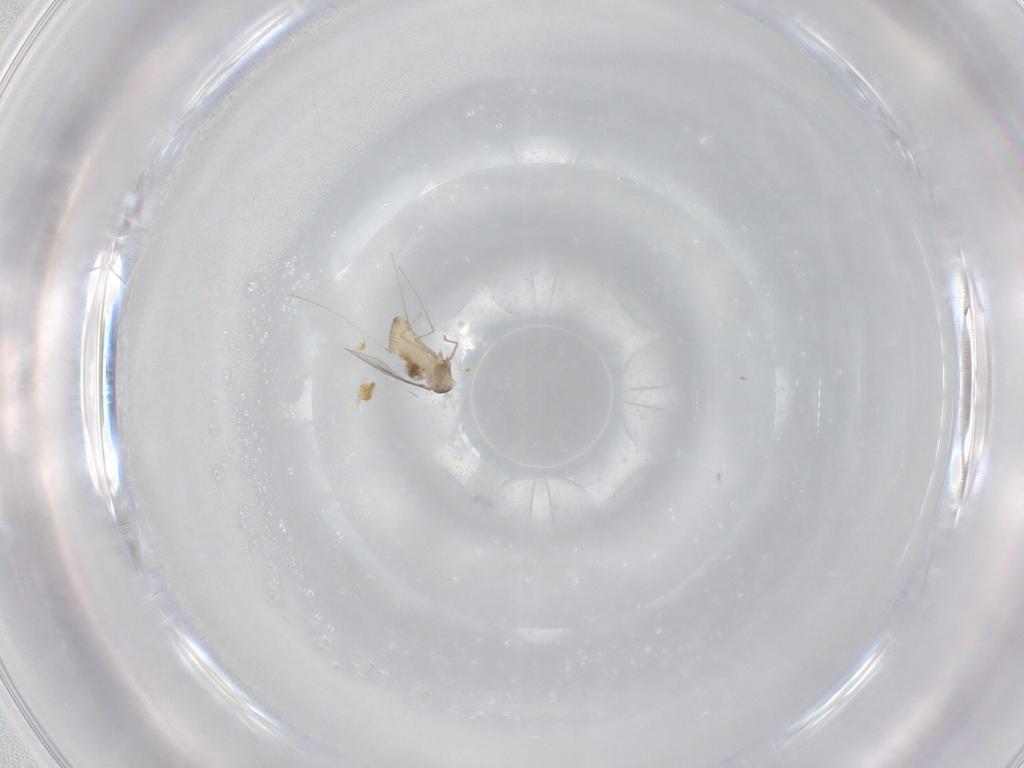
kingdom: Animalia
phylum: Arthropoda
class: Insecta
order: Diptera
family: Cecidomyiidae
